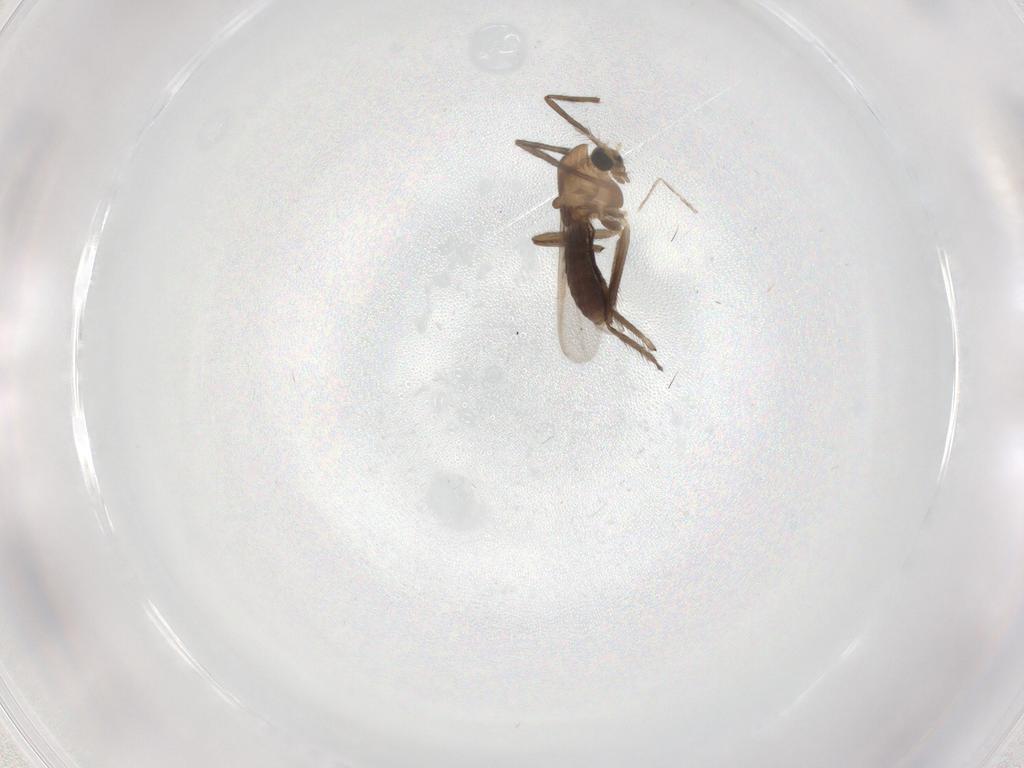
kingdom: Animalia
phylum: Arthropoda
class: Insecta
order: Diptera
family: Chironomidae
